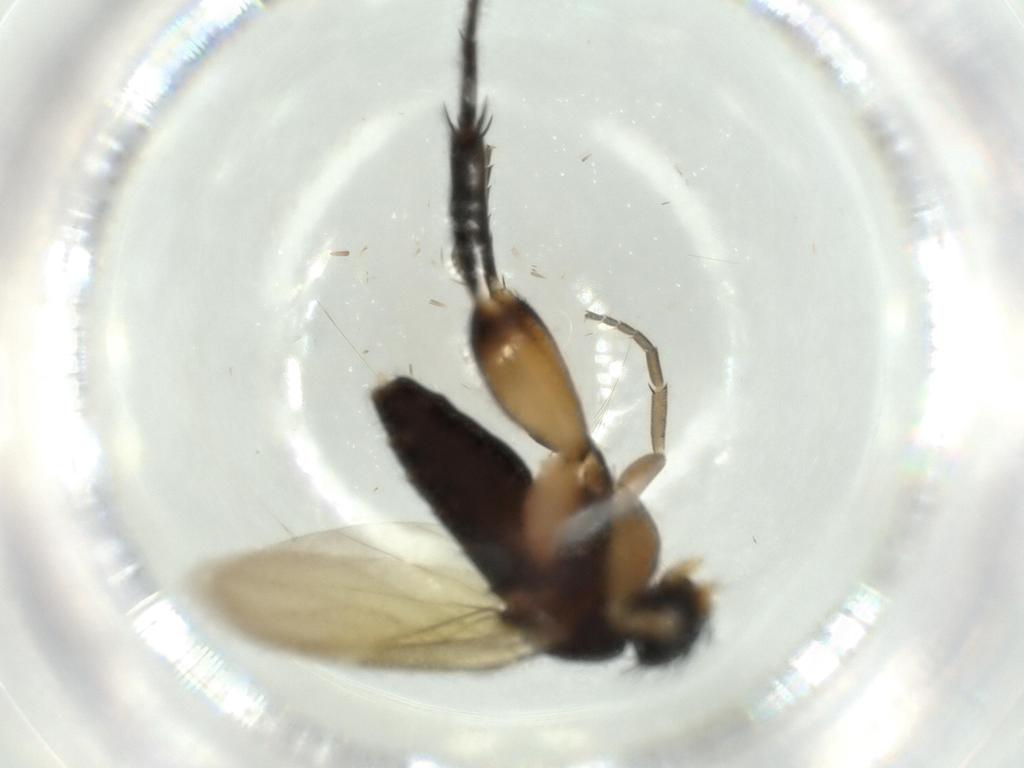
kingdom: Animalia
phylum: Arthropoda
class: Insecta
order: Diptera
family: Phoridae
